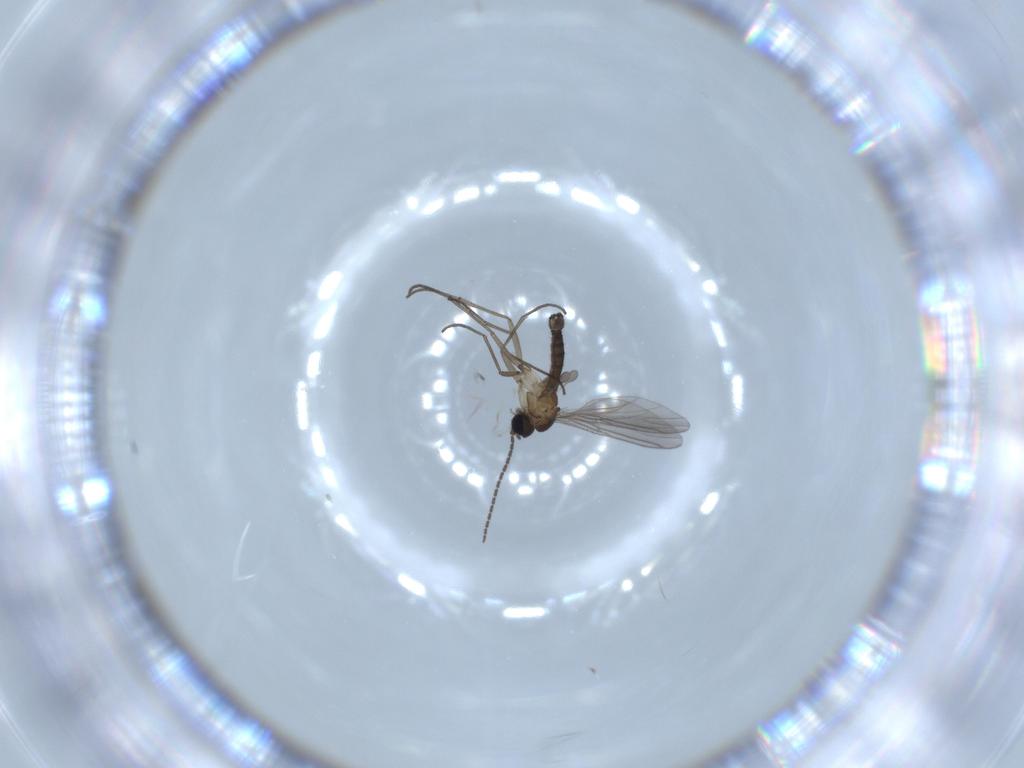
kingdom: Animalia
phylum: Arthropoda
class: Insecta
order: Diptera
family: Sciaridae
